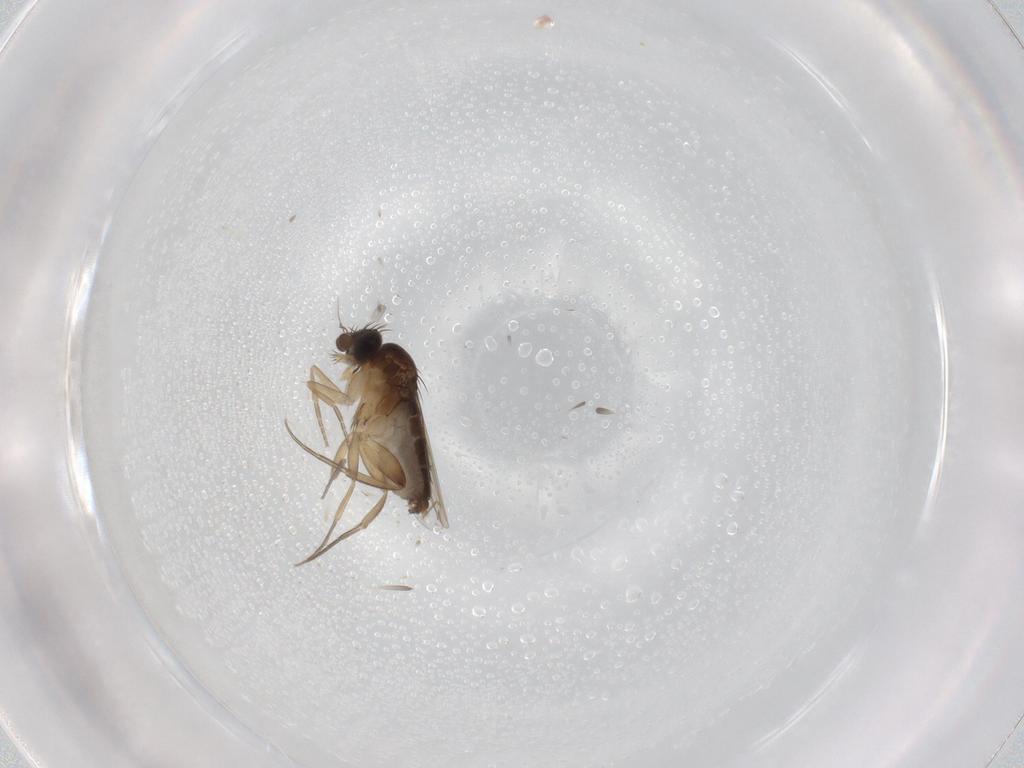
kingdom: Animalia
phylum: Arthropoda
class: Insecta
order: Diptera
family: Phoridae
